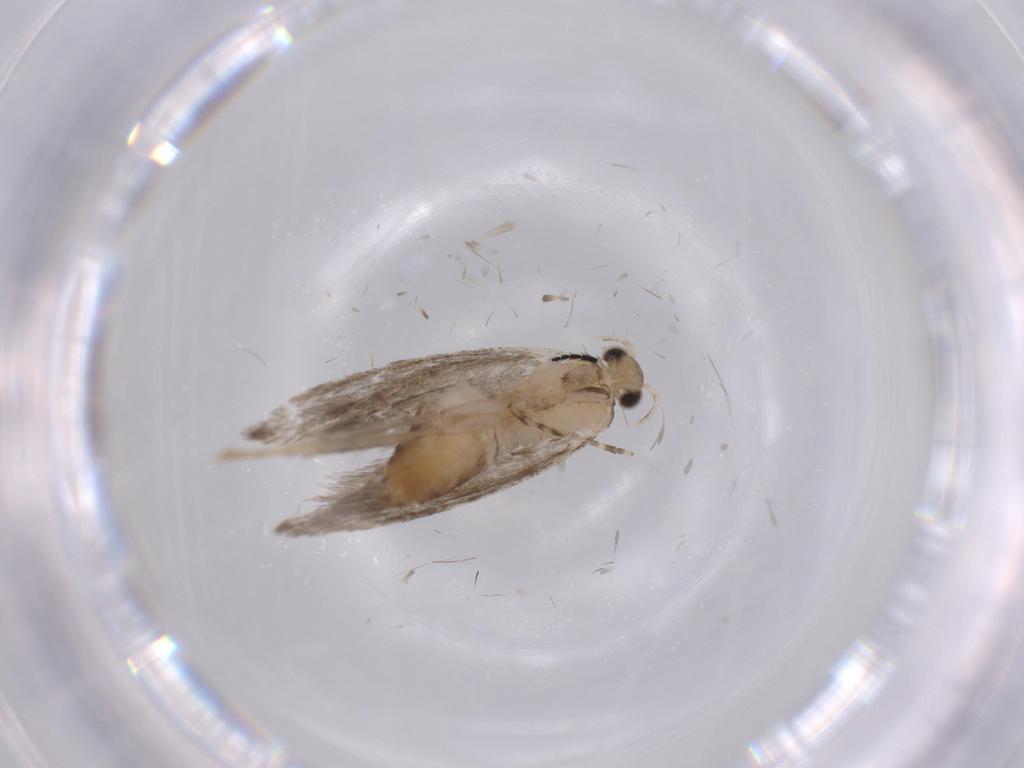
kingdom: Animalia
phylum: Arthropoda
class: Insecta
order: Lepidoptera
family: Tineidae
